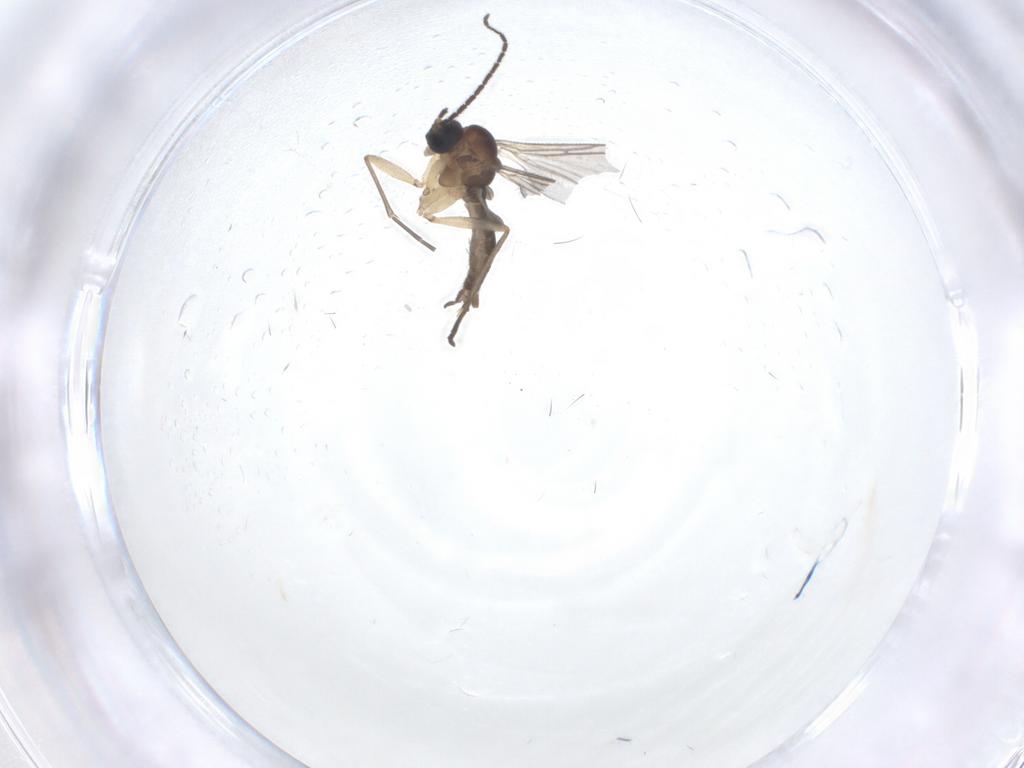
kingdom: Animalia
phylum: Arthropoda
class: Insecta
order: Diptera
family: Sciaridae
